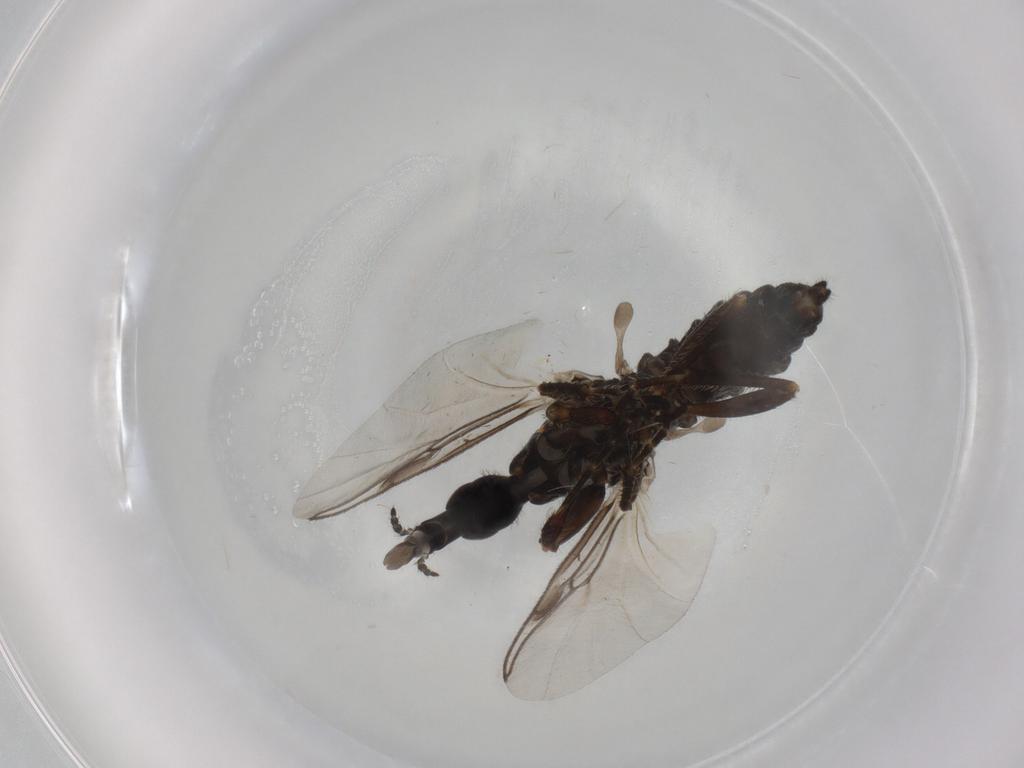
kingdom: Animalia
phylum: Arthropoda
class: Insecta
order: Diptera
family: Bibionidae
